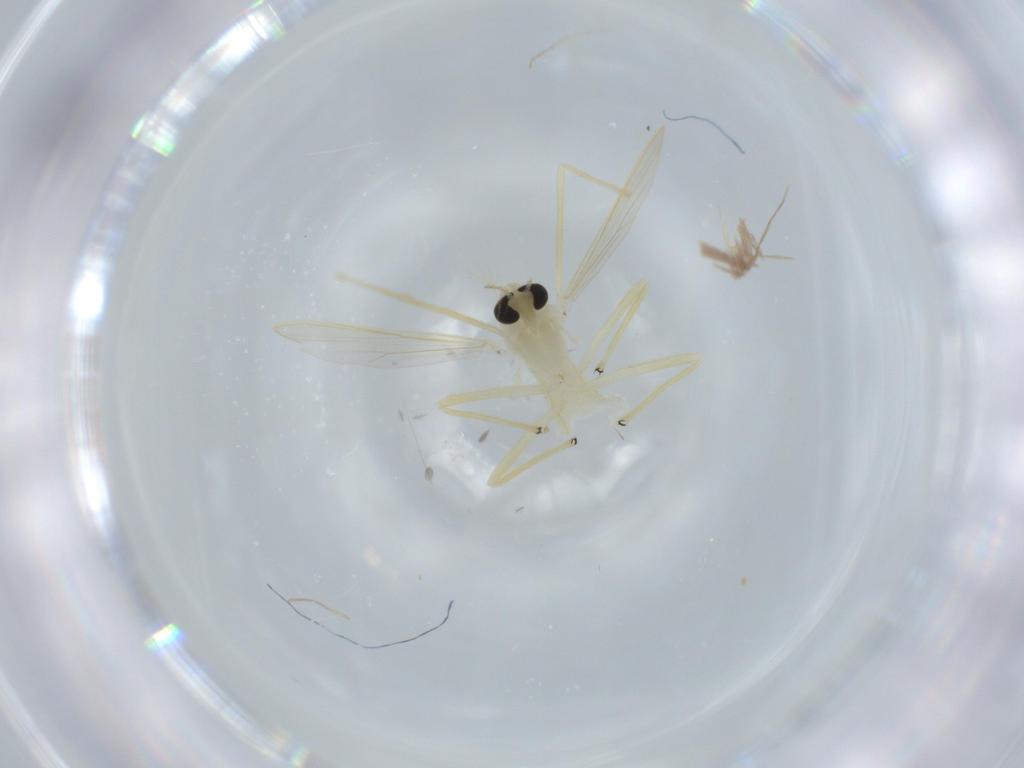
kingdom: Animalia
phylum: Arthropoda
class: Insecta
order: Diptera
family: Chironomidae
